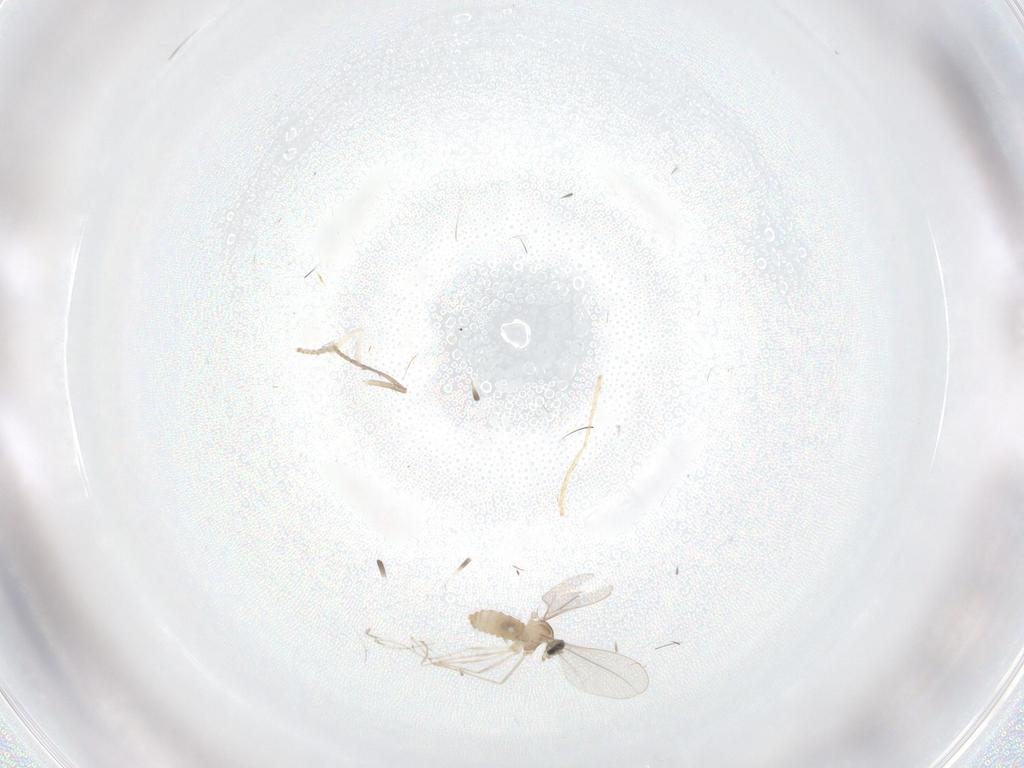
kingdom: Animalia
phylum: Arthropoda
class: Insecta
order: Diptera
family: Psychodidae
